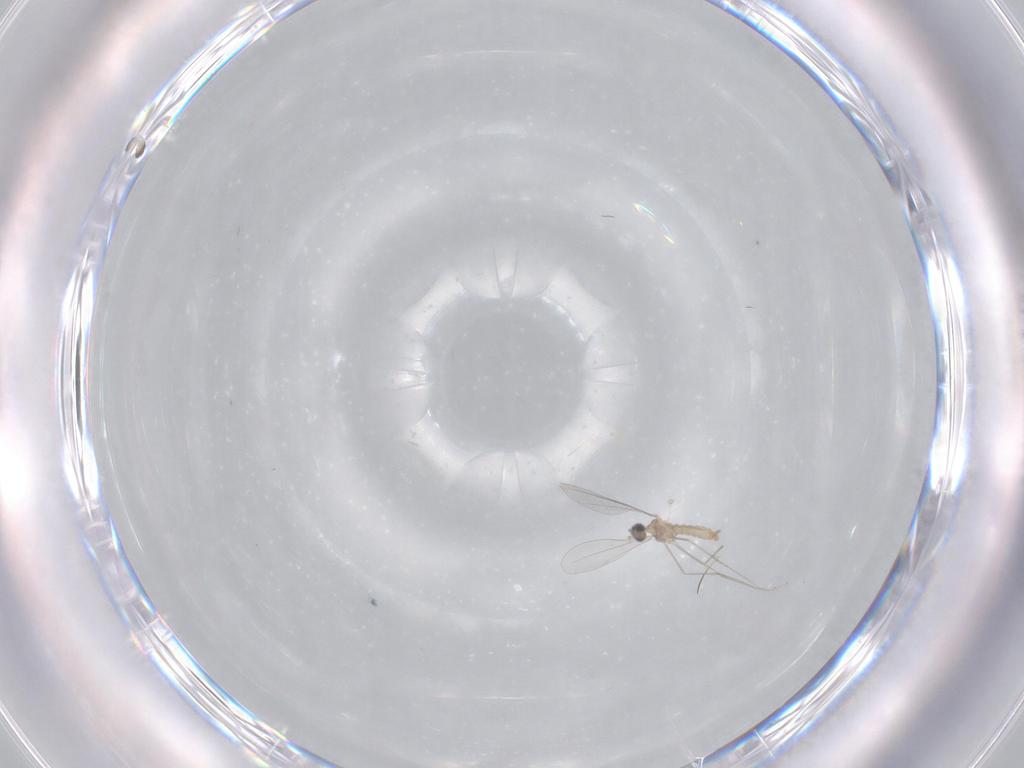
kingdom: Animalia
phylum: Arthropoda
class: Insecta
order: Diptera
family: Cecidomyiidae
